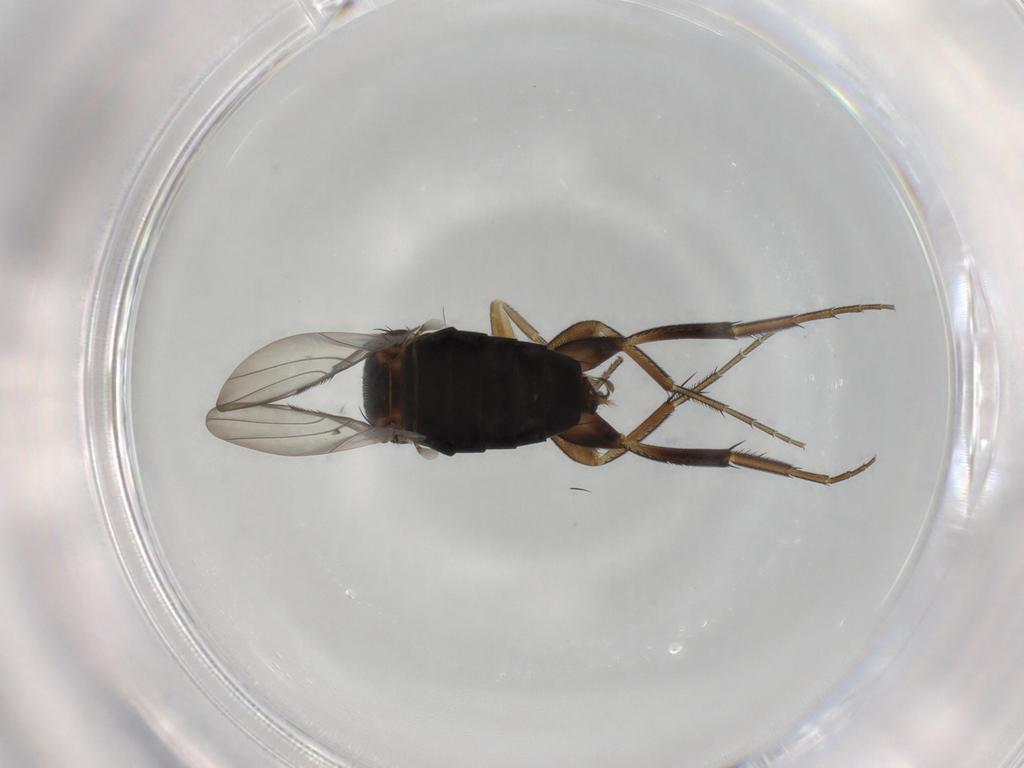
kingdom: Animalia
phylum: Arthropoda
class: Insecta
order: Diptera
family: Phoridae
